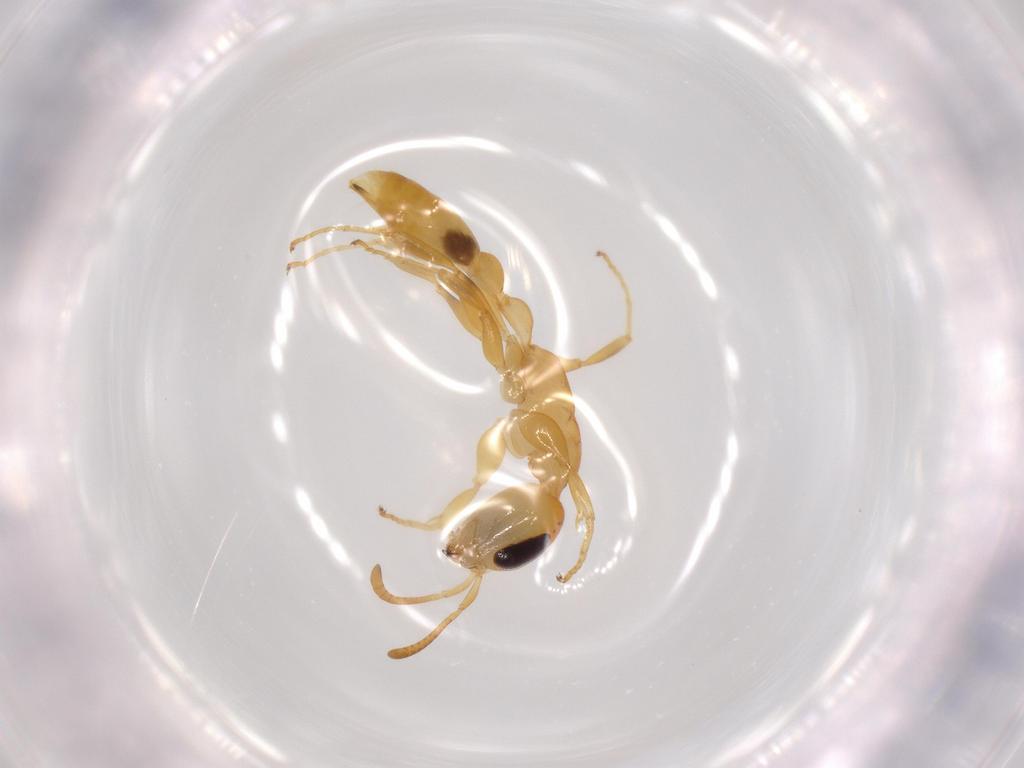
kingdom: Animalia
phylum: Arthropoda
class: Insecta
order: Hymenoptera
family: Formicidae
